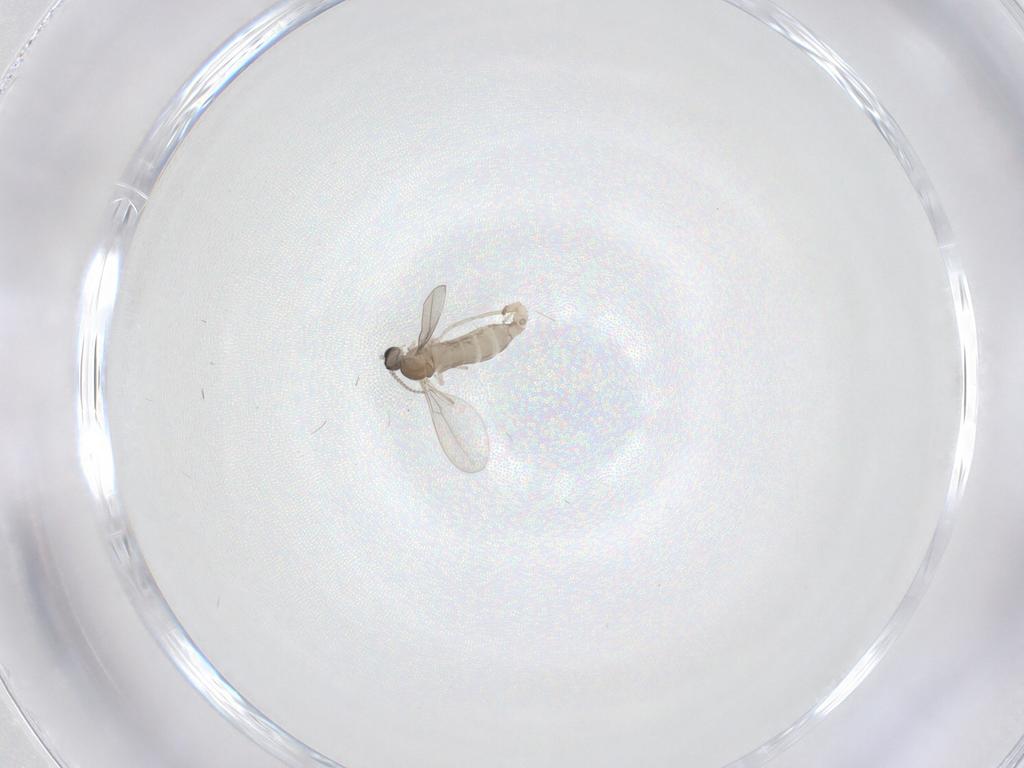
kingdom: Animalia
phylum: Arthropoda
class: Insecta
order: Diptera
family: Cecidomyiidae
